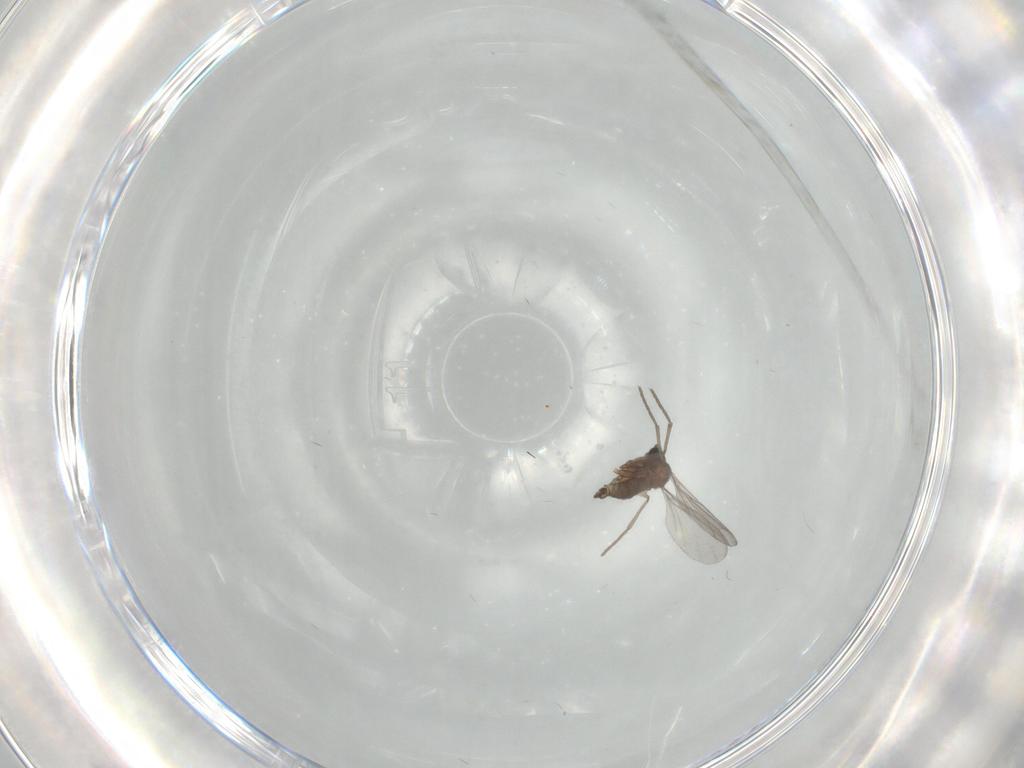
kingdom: Animalia
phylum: Arthropoda
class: Insecta
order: Diptera
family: Sciaridae
